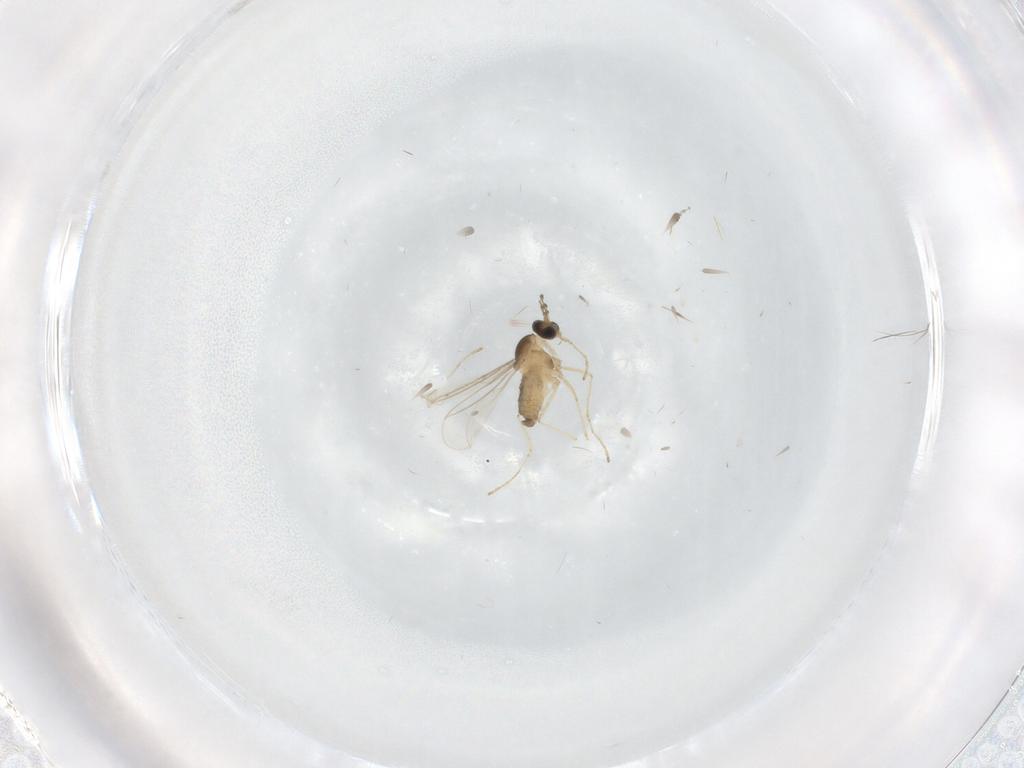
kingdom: Animalia
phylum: Arthropoda
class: Insecta
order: Diptera
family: Cecidomyiidae
